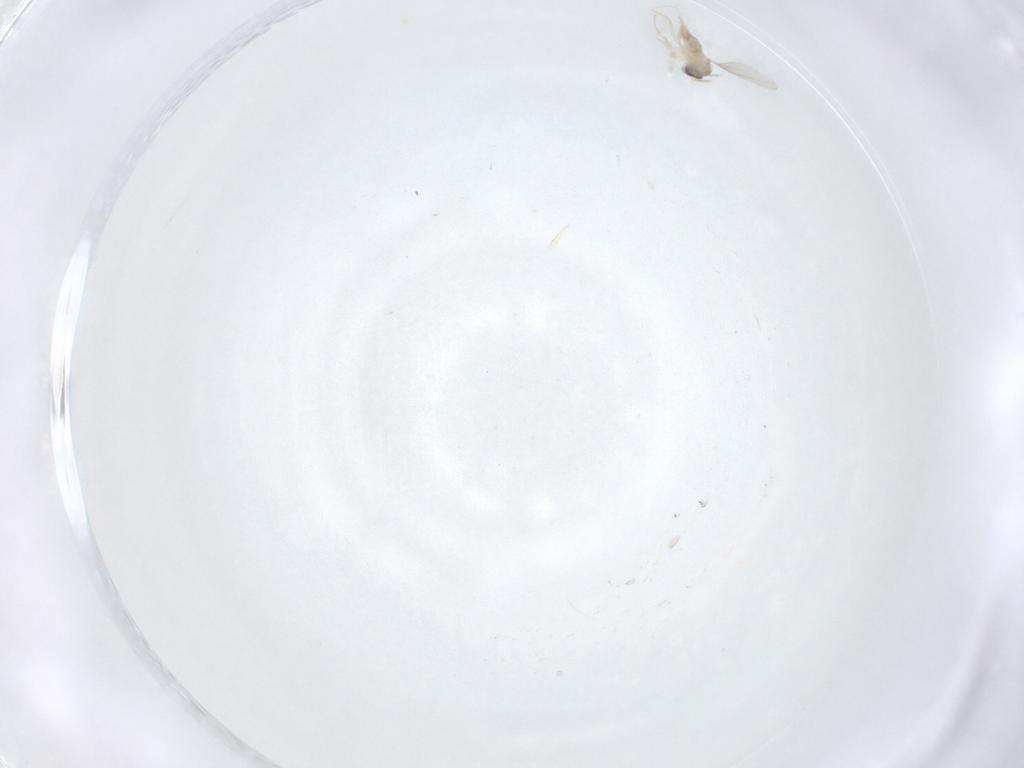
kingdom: Animalia
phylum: Arthropoda
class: Insecta
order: Diptera
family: Cecidomyiidae
